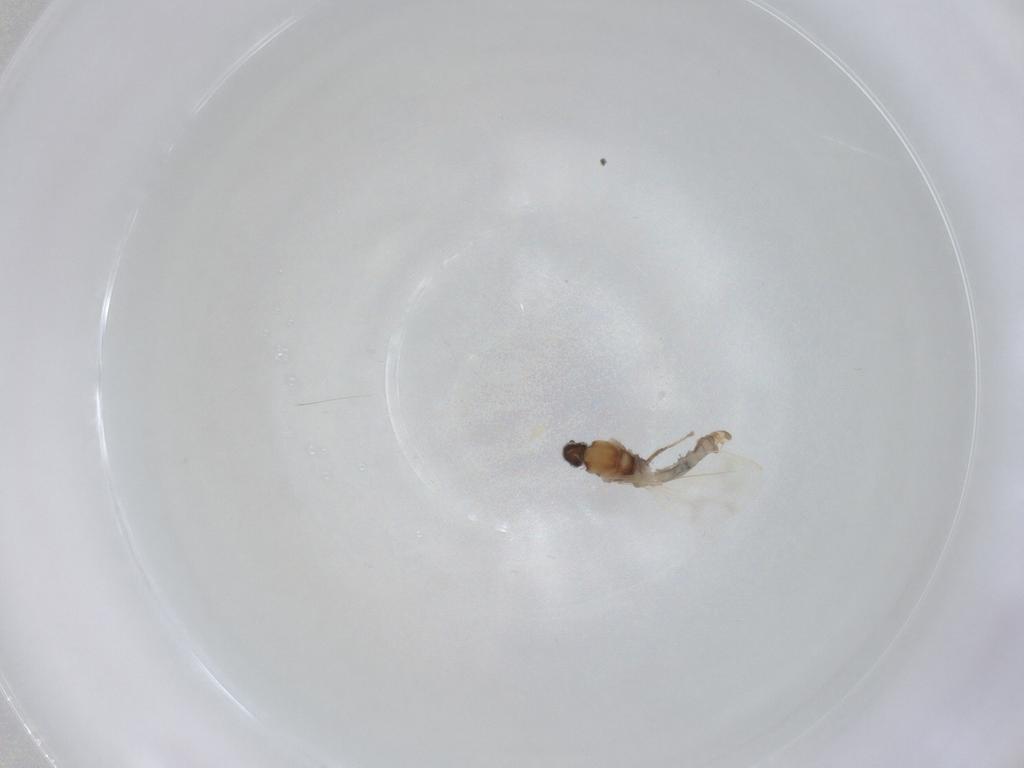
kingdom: Animalia
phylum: Arthropoda
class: Insecta
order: Diptera
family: Cecidomyiidae
